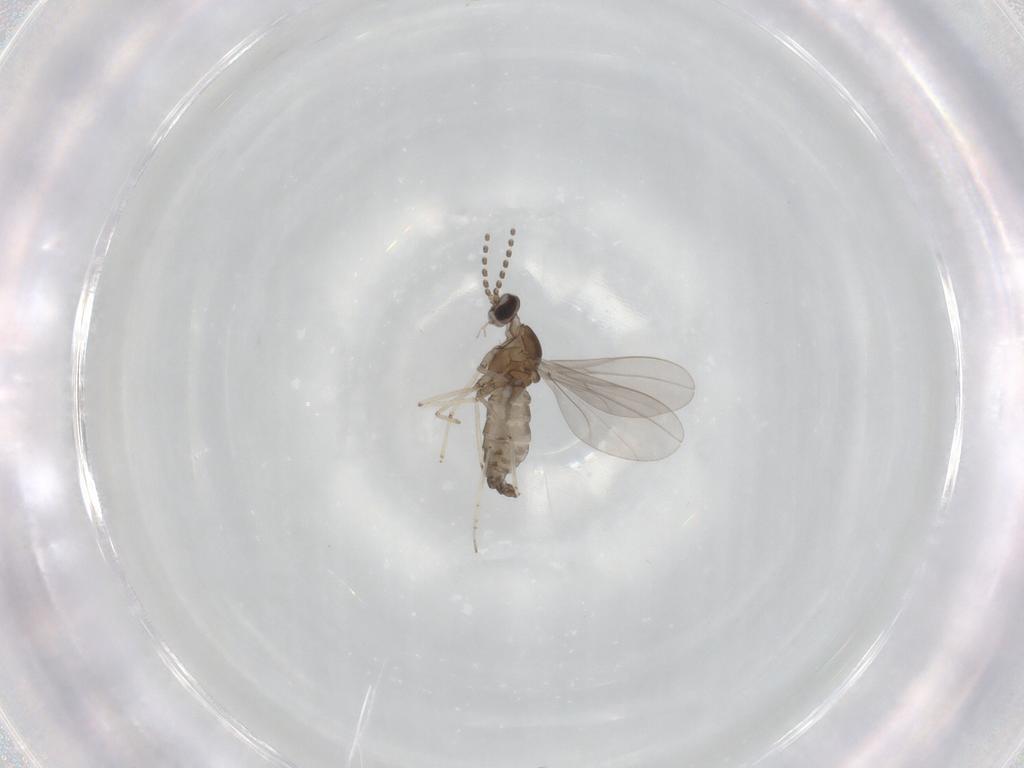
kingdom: Animalia
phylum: Arthropoda
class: Insecta
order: Diptera
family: Cecidomyiidae
